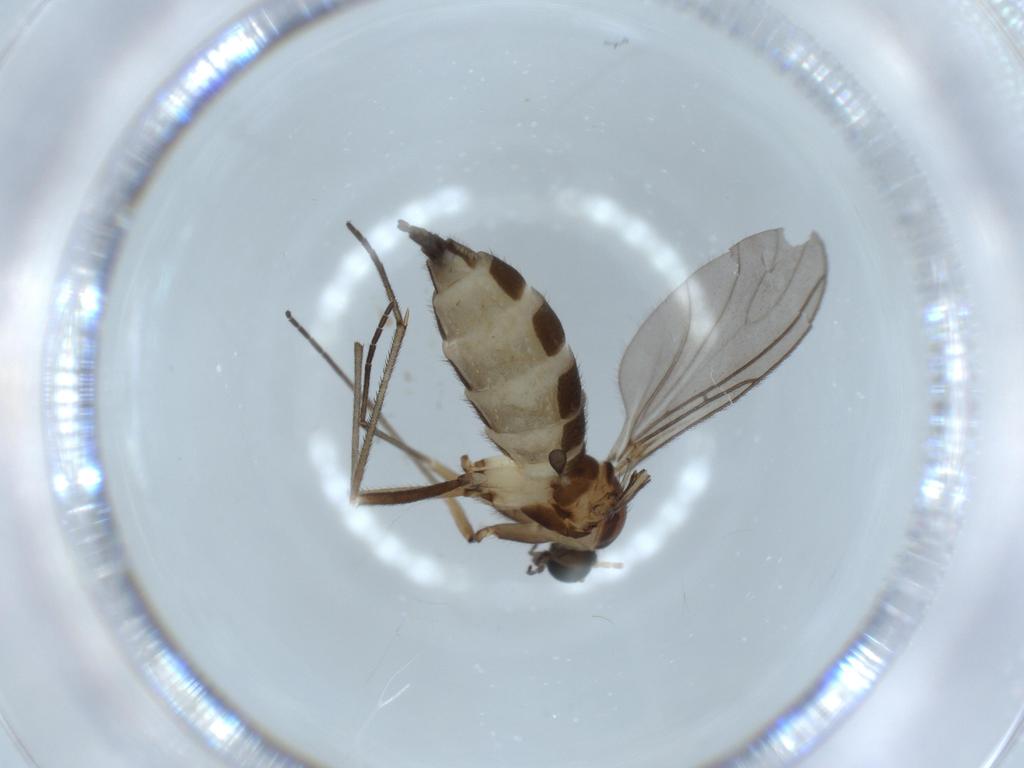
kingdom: Animalia
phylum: Arthropoda
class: Insecta
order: Diptera
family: Sciaridae
